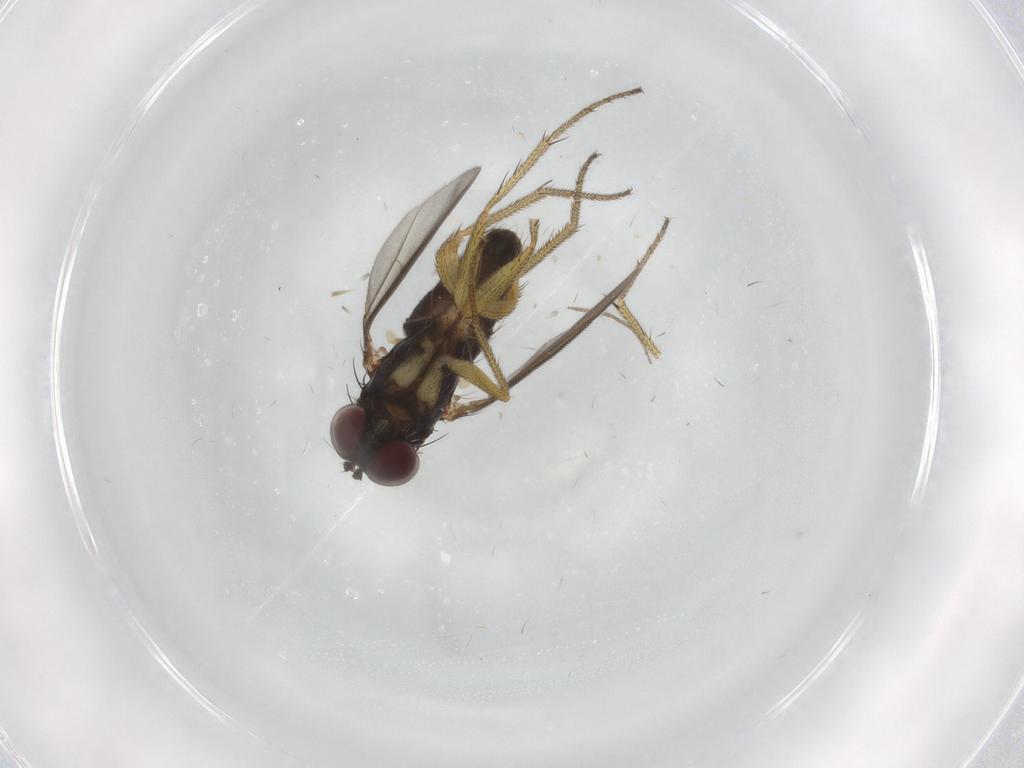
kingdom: Animalia
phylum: Arthropoda
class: Insecta
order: Diptera
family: Chironomidae
